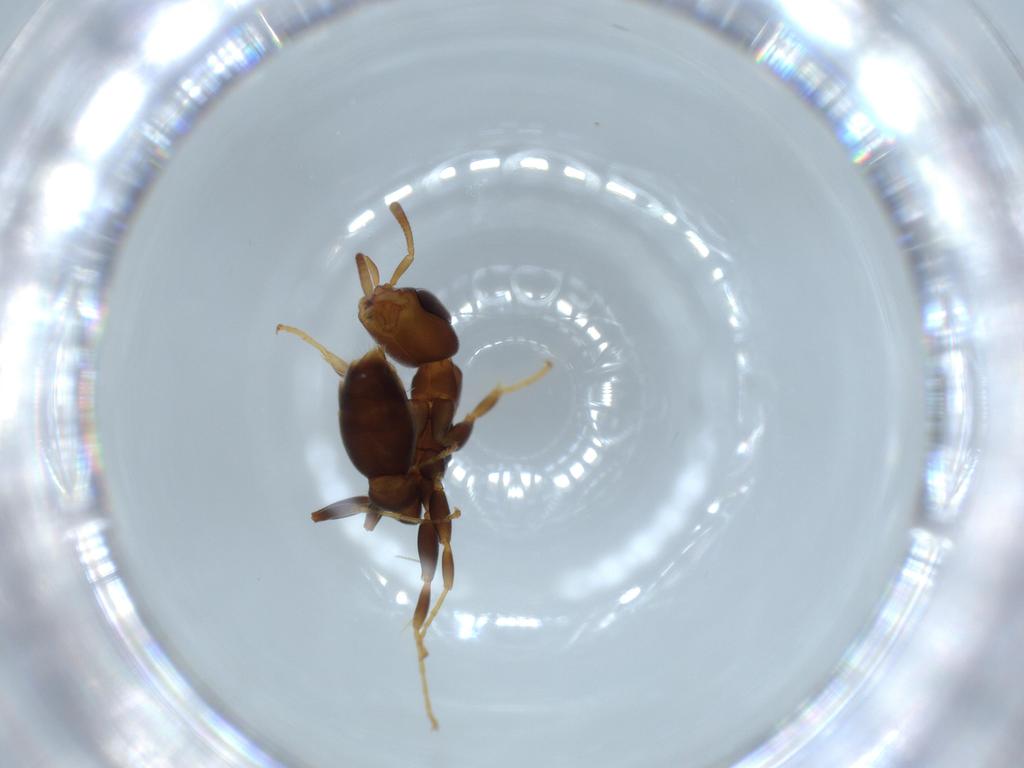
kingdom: Animalia
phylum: Arthropoda
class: Insecta
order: Hymenoptera
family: Formicidae
